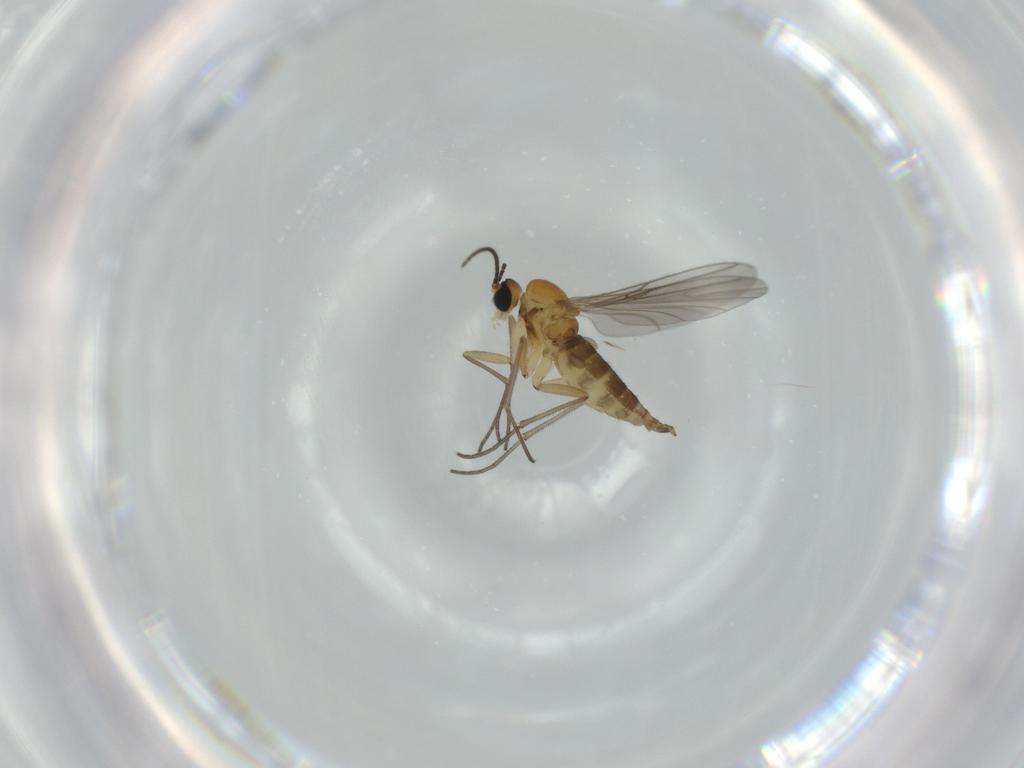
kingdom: Animalia
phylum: Arthropoda
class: Insecta
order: Diptera
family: Sciaridae
